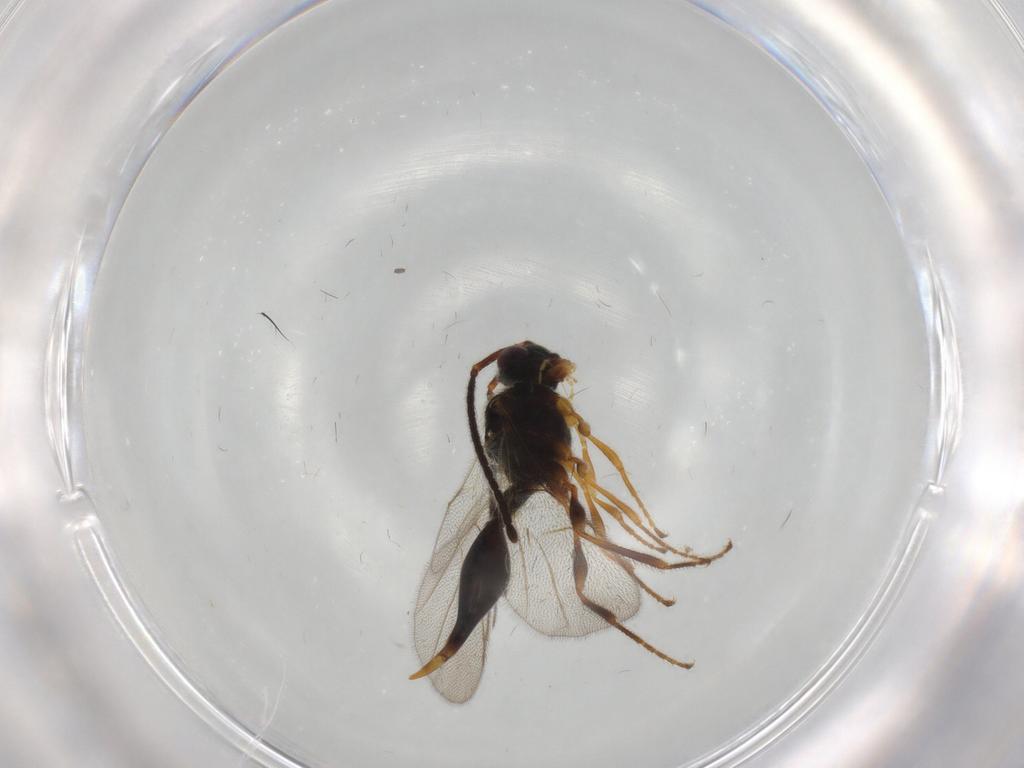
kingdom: Animalia
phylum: Arthropoda
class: Insecta
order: Hymenoptera
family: Diapriidae
